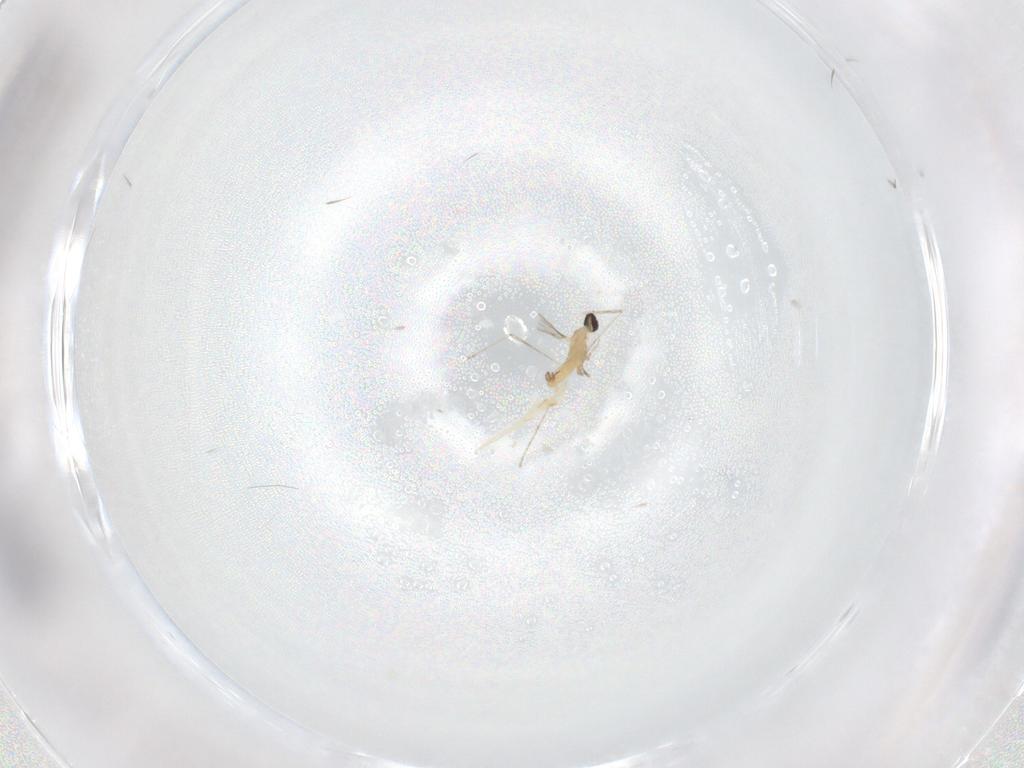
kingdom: Animalia
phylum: Arthropoda
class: Insecta
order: Diptera
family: Cecidomyiidae
